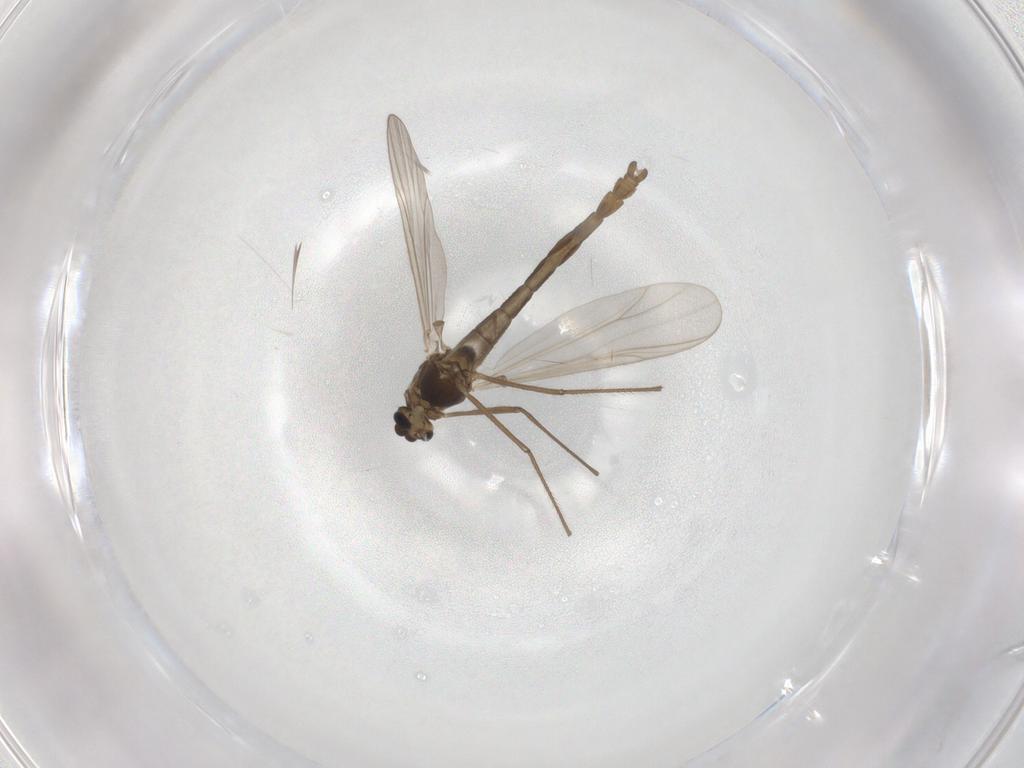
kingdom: Animalia
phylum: Arthropoda
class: Insecta
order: Diptera
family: Chironomidae
